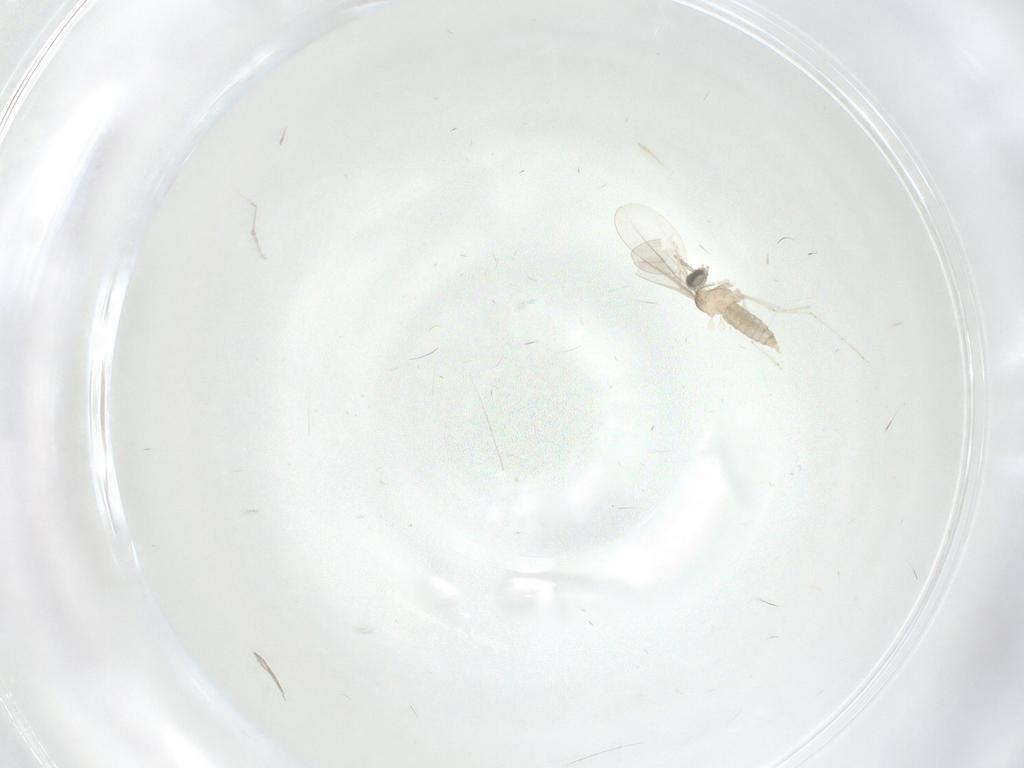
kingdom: Animalia
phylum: Arthropoda
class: Insecta
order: Diptera
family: Cecidomyiidae
